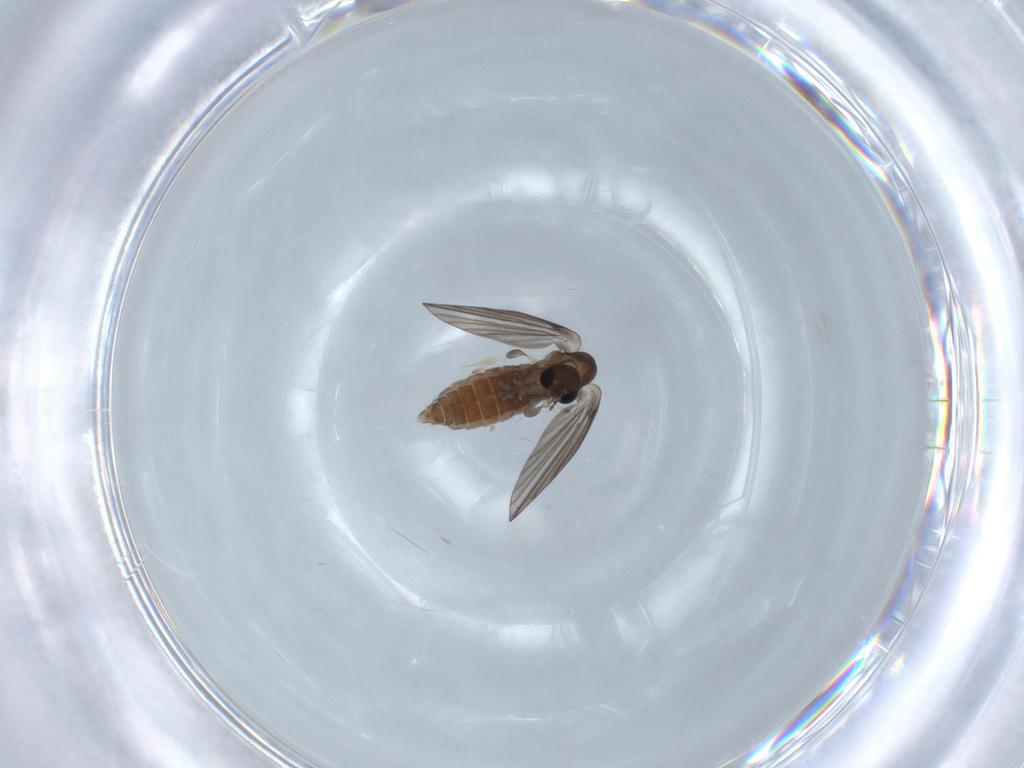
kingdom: Animalia
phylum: Arthropoda
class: Insecta
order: Diptera
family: Psychodidae
